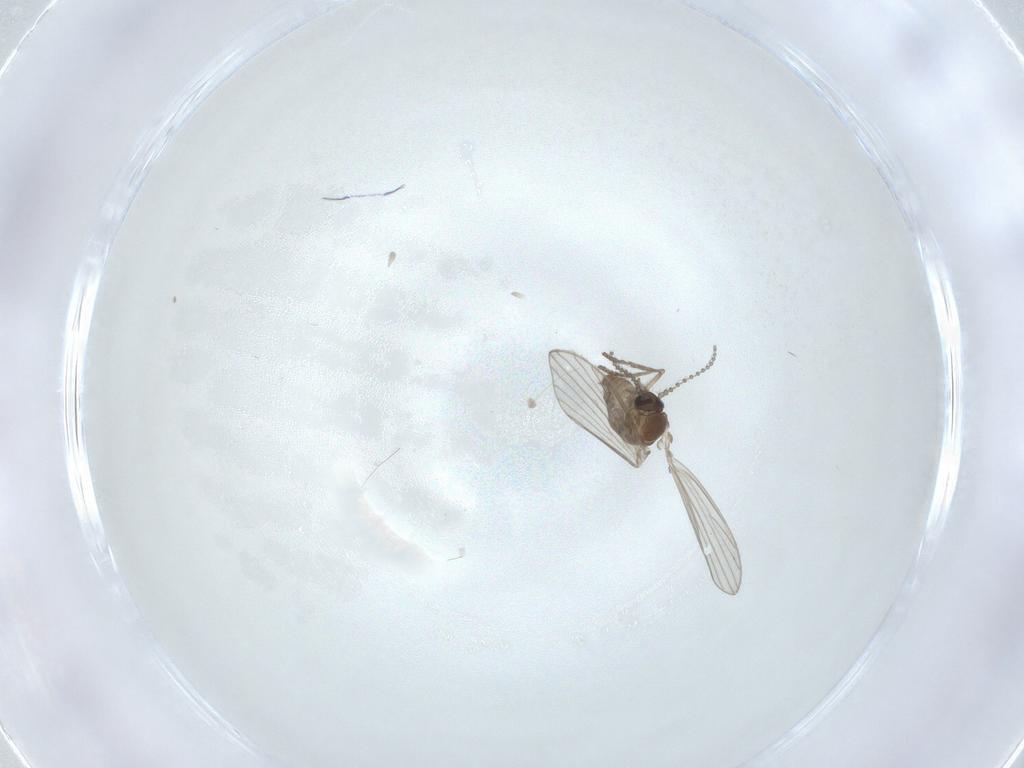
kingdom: Animalia
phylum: Arthropoda
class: Insecta
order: Diptera
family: Psychodidae
